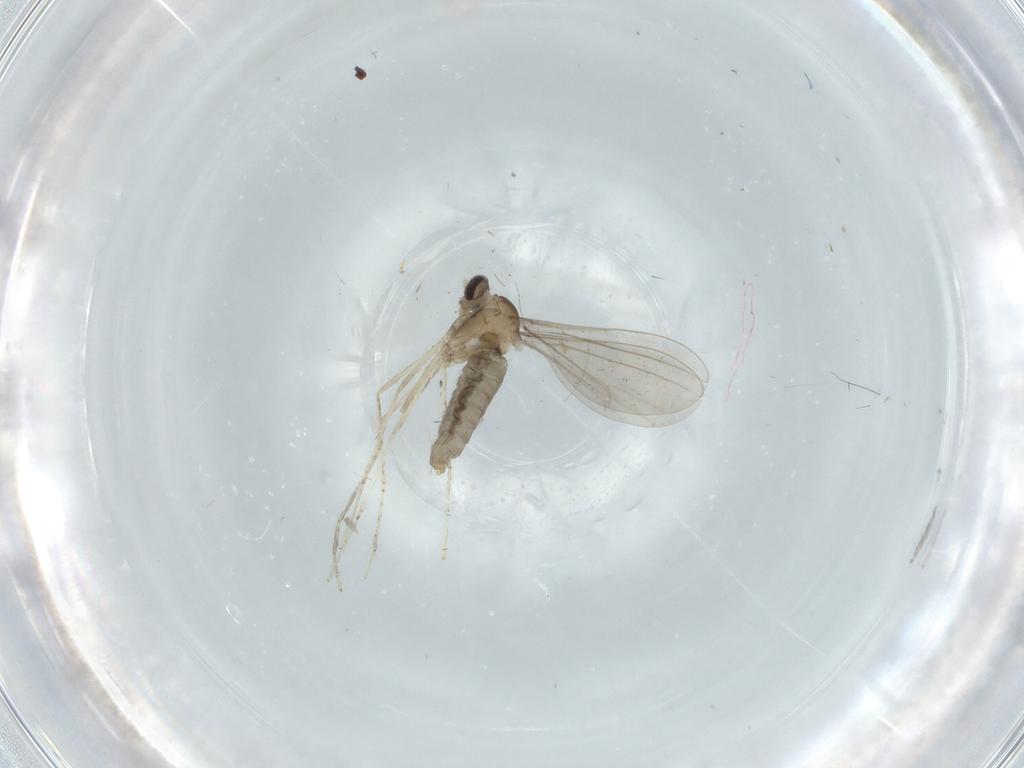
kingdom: Animalia
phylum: Arthropoda
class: Insecta
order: Diptera
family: Cecidomyiidae
